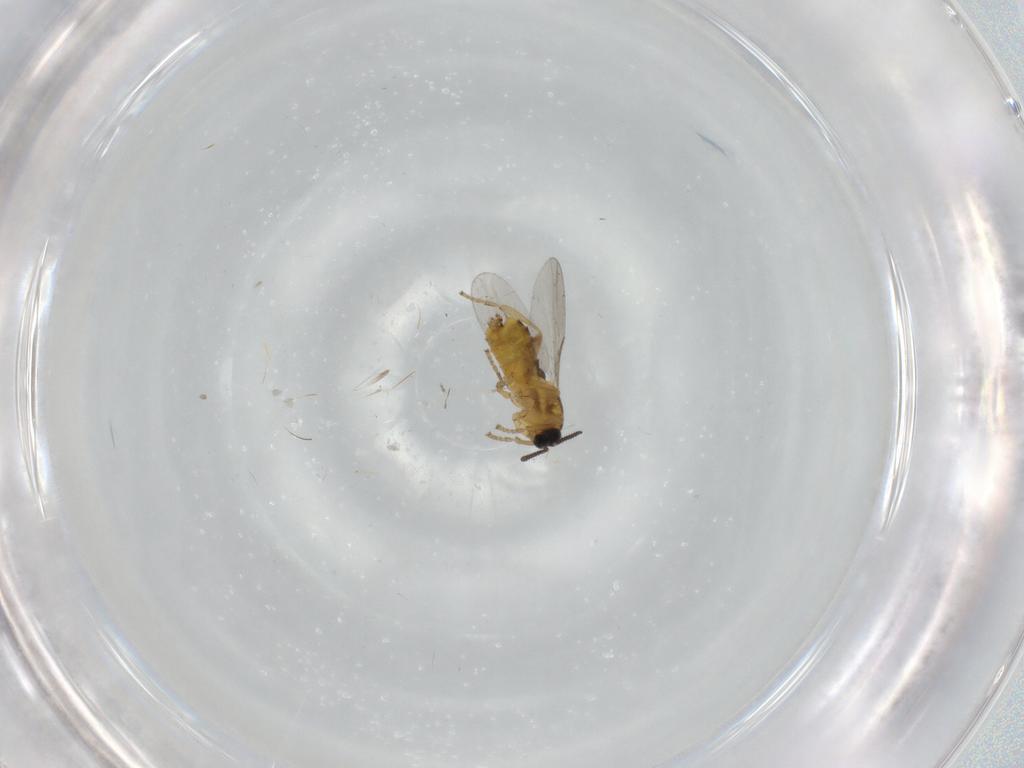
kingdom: Animalia
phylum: Arthropoda
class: Insecta
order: Diptera
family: Scatopsidae
